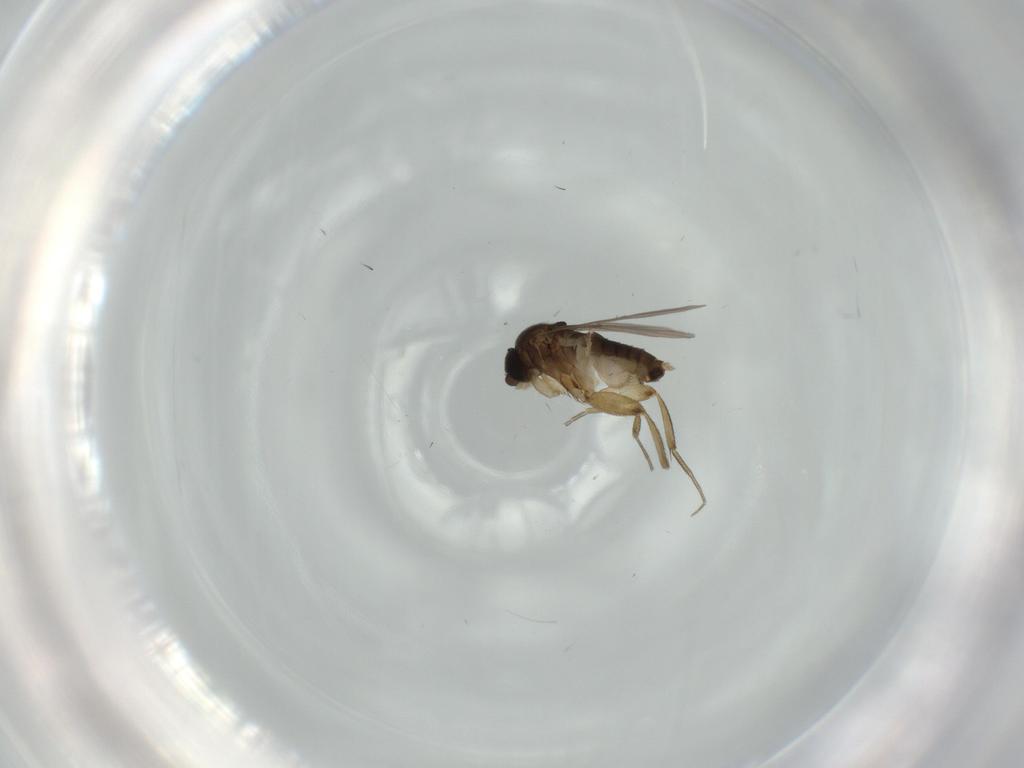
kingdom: Animalia
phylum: Arthropoda
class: Insecta
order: Diptera
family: Phoridae
